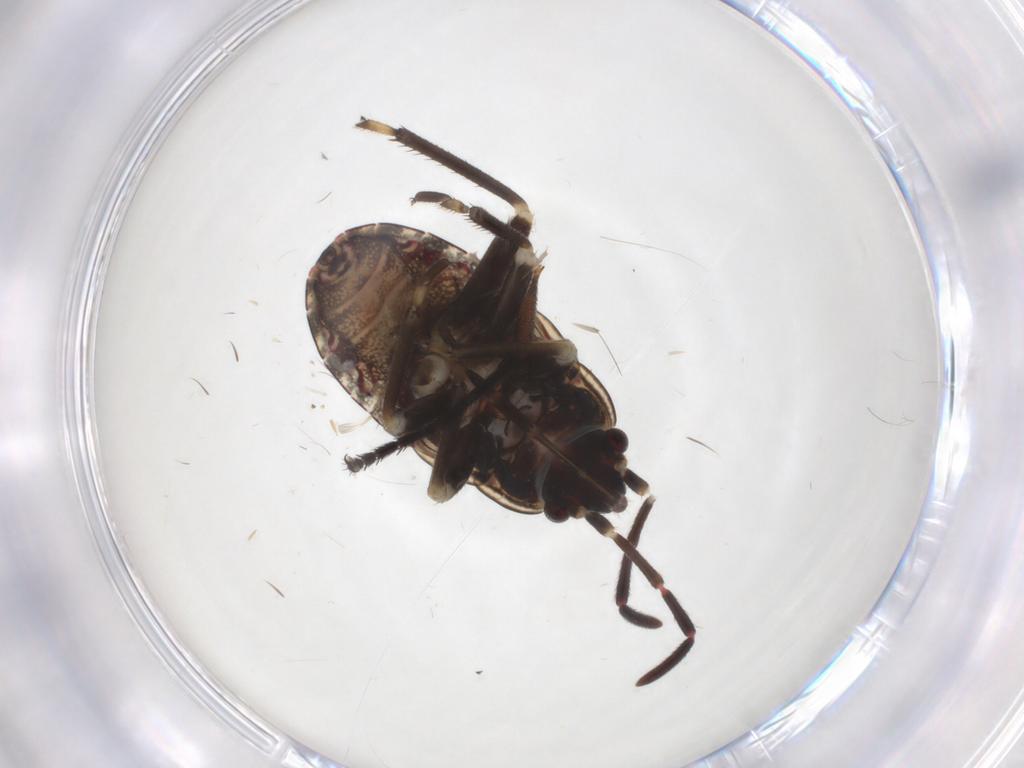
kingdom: Animalia
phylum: Arthropoda
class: Insecta
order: Hemiptera
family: Rhyparochromidae
